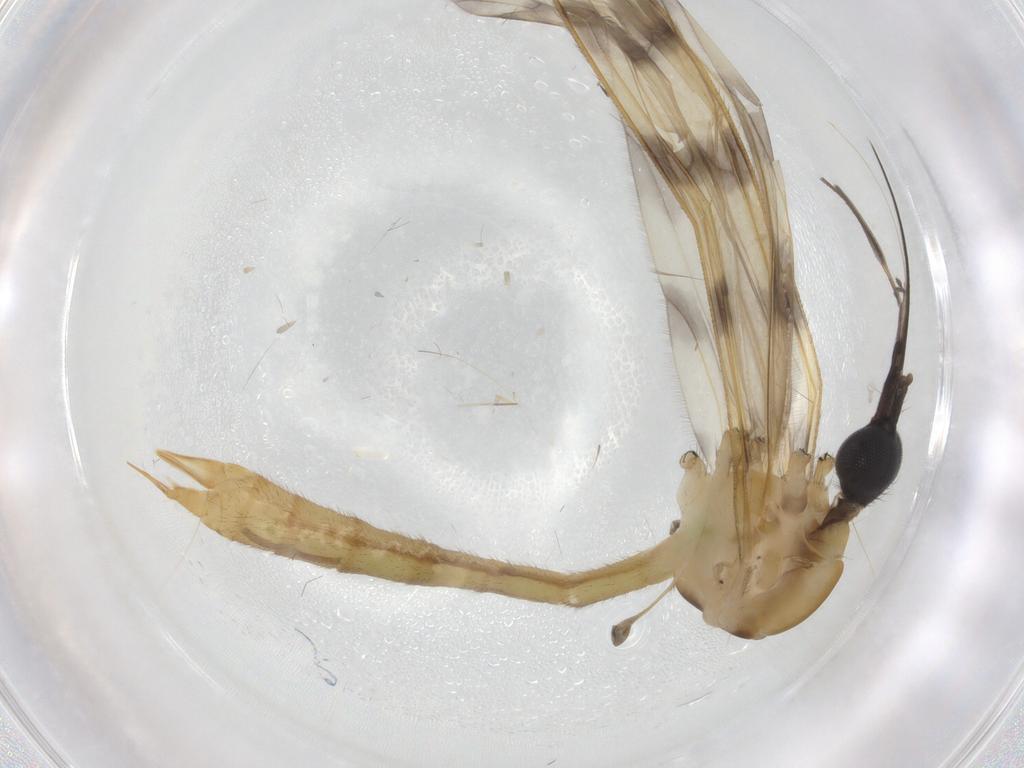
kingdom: Animalia
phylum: Arthropoda
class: Insecta
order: Diptera
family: Limoniidae
